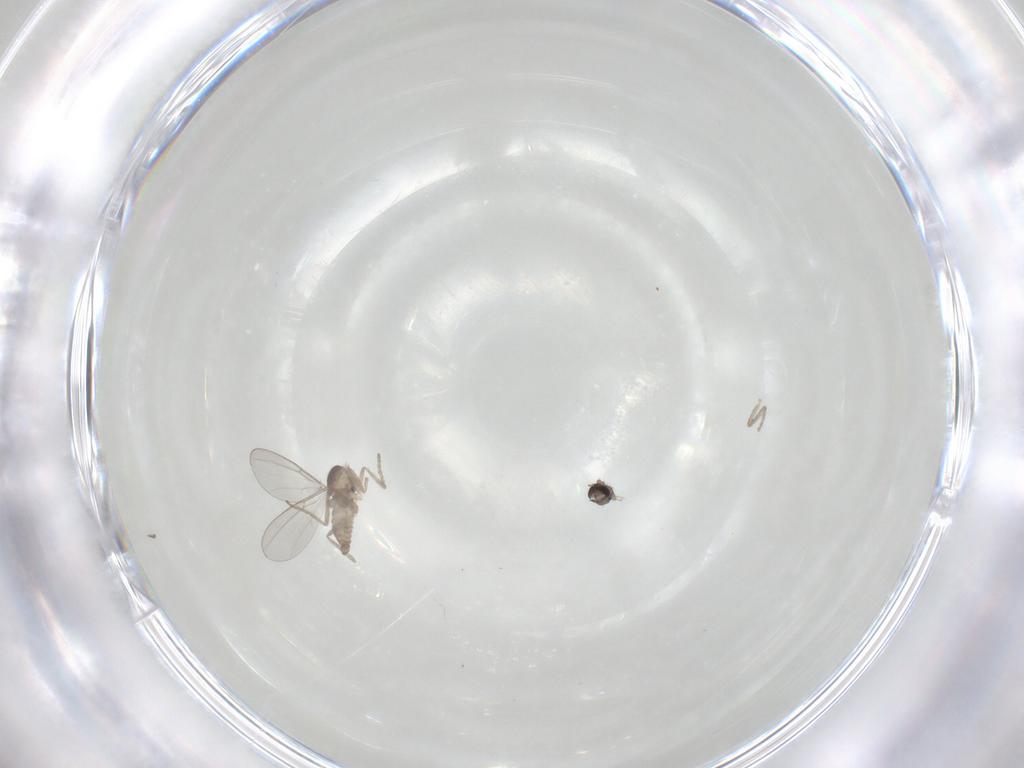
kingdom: Animalia
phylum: Arthropoda
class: Insecta
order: Diptera
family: Cecidomyiidae
